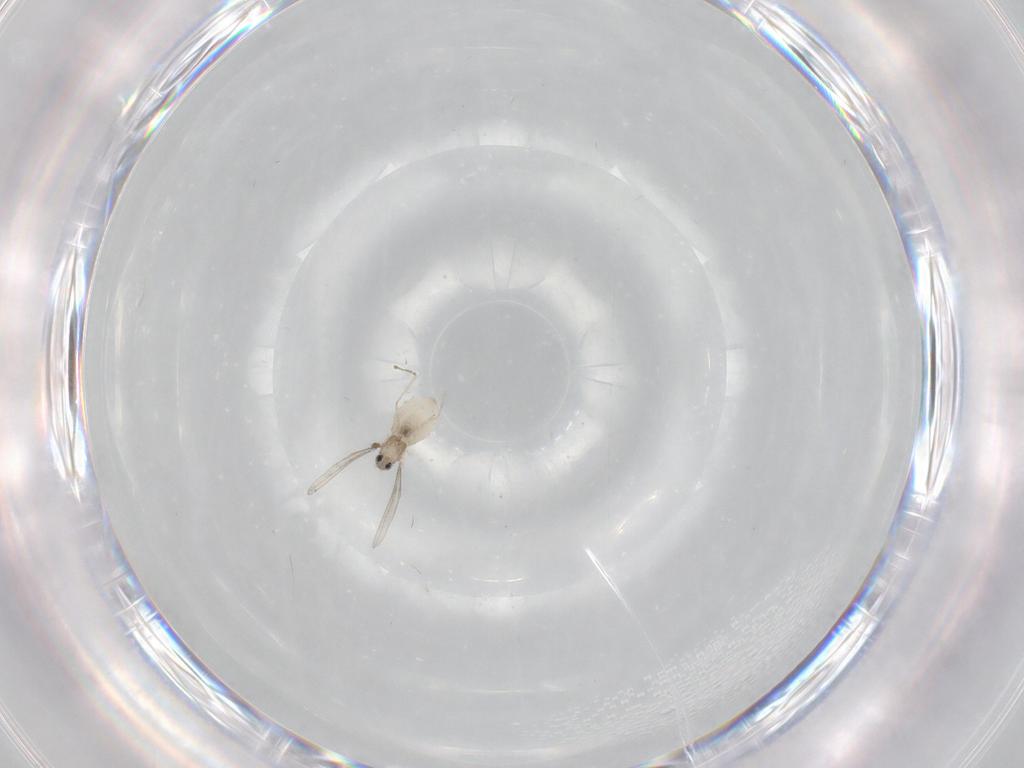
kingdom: Animalia
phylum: Arthropoda
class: Insecta
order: Diptera
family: Cecidomyiidae
